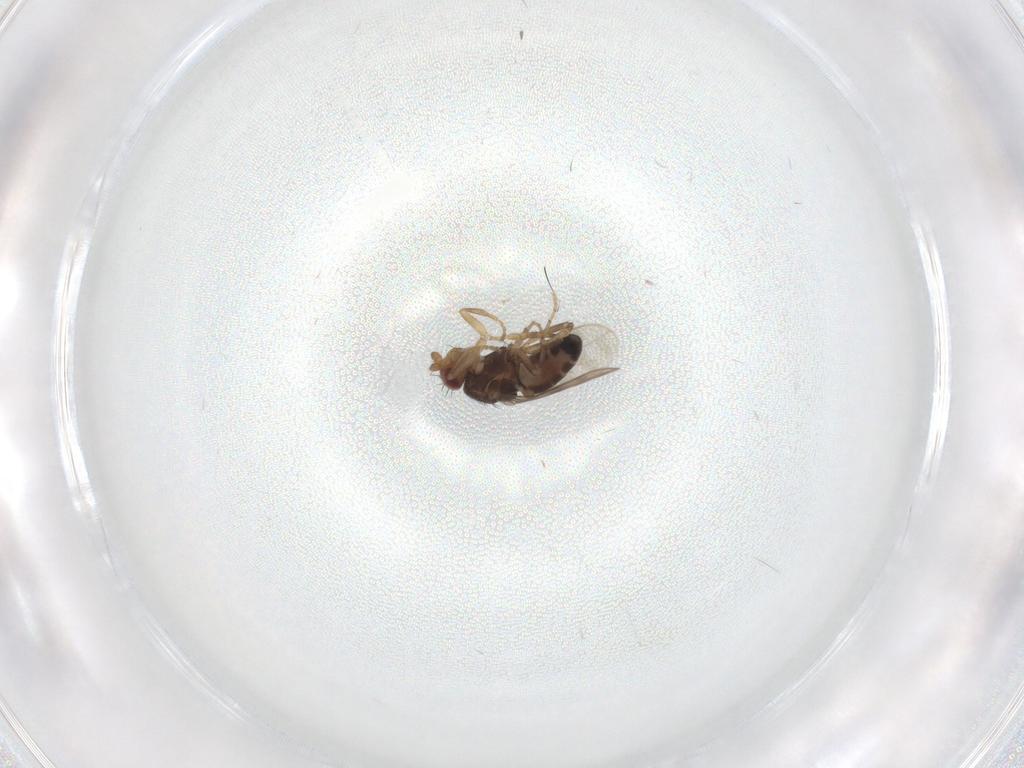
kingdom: Animalia
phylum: Arthropoda
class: Insecta
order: Diptera
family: Sphaeroceridae
